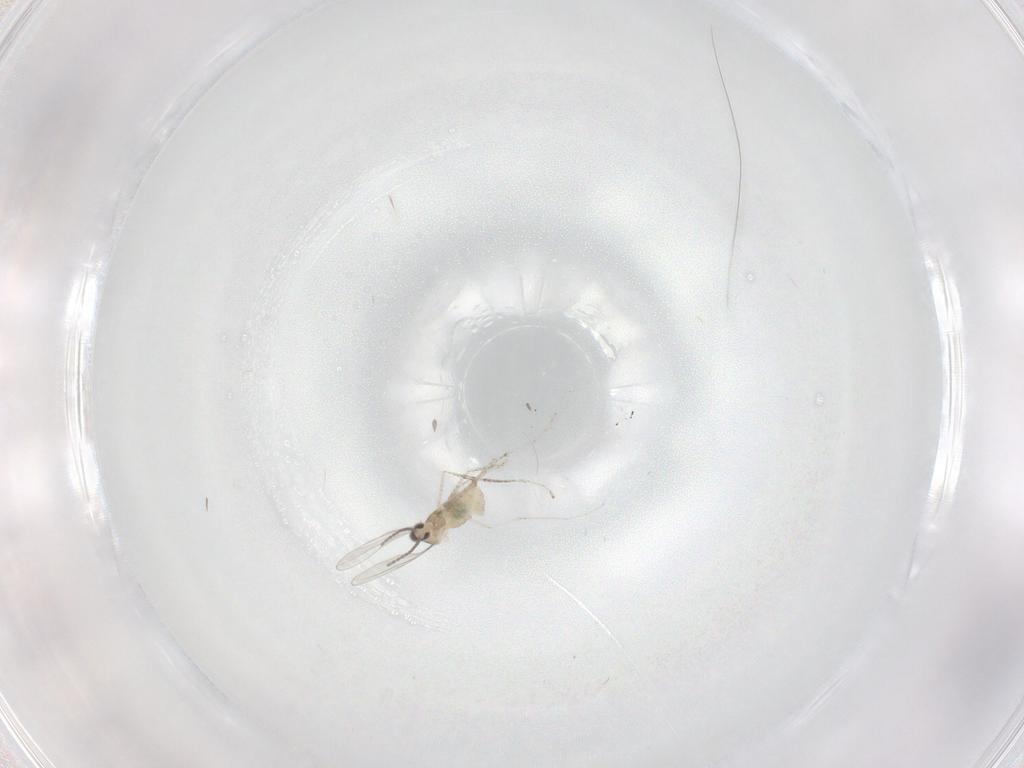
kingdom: Animalia
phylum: Arthropoda
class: Insecta
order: Diptera
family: Cecidomyiidae
